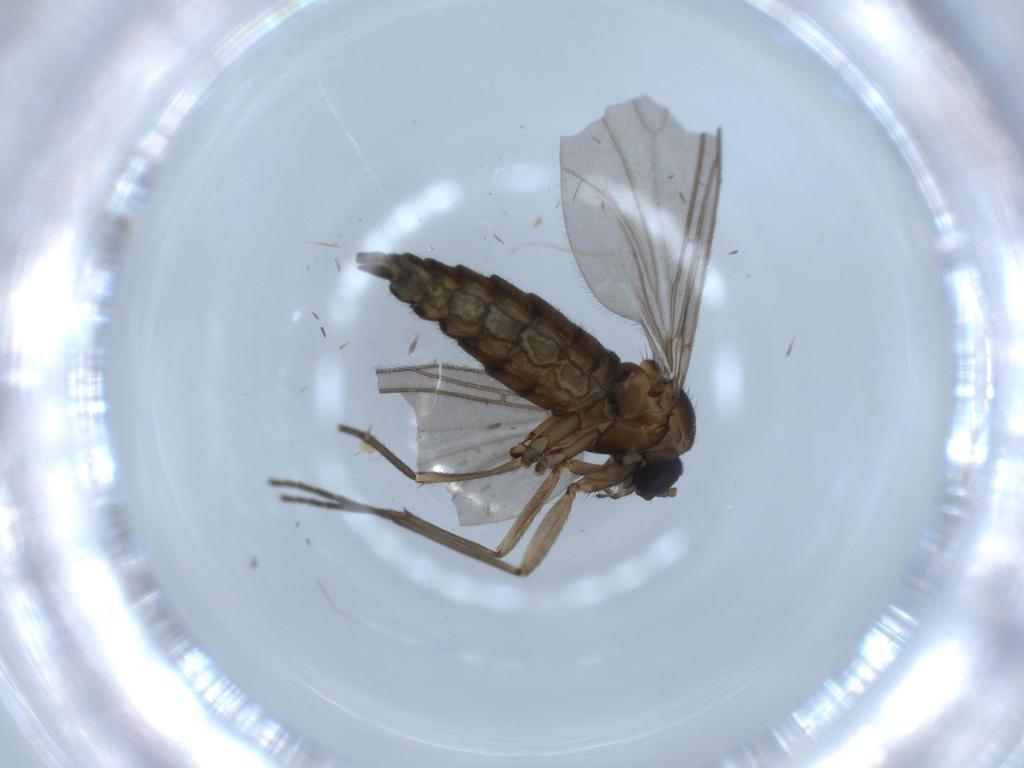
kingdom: Animalia
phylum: Arthropoda
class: Insecta
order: Diptera
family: Sciaridae
